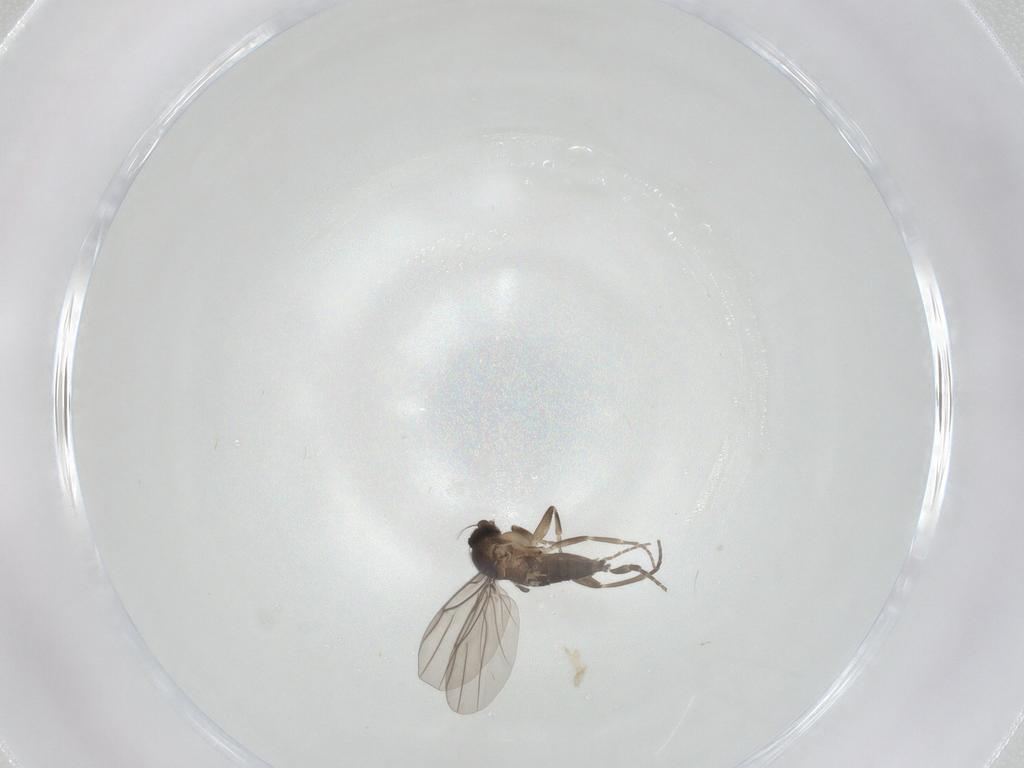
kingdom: Animalia
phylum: Arthropoda
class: Insecta
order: Diptera
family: Phoridae
